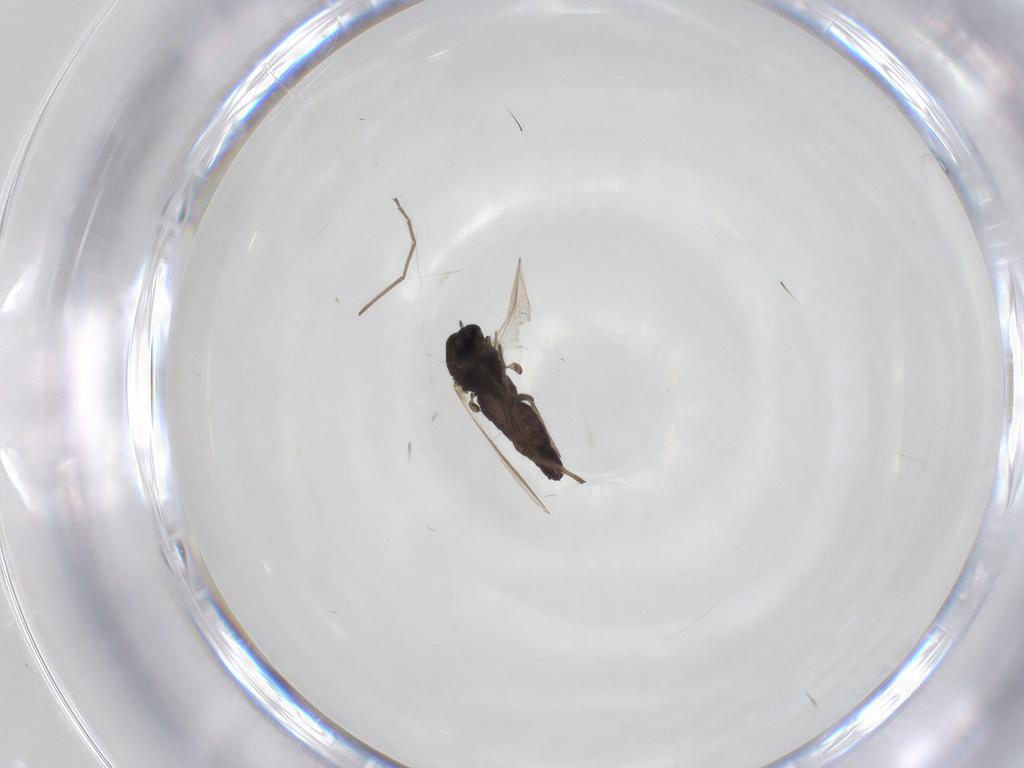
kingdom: Animalia
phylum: Arthropoda
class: Insecta
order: Diptera
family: Chironomidae
